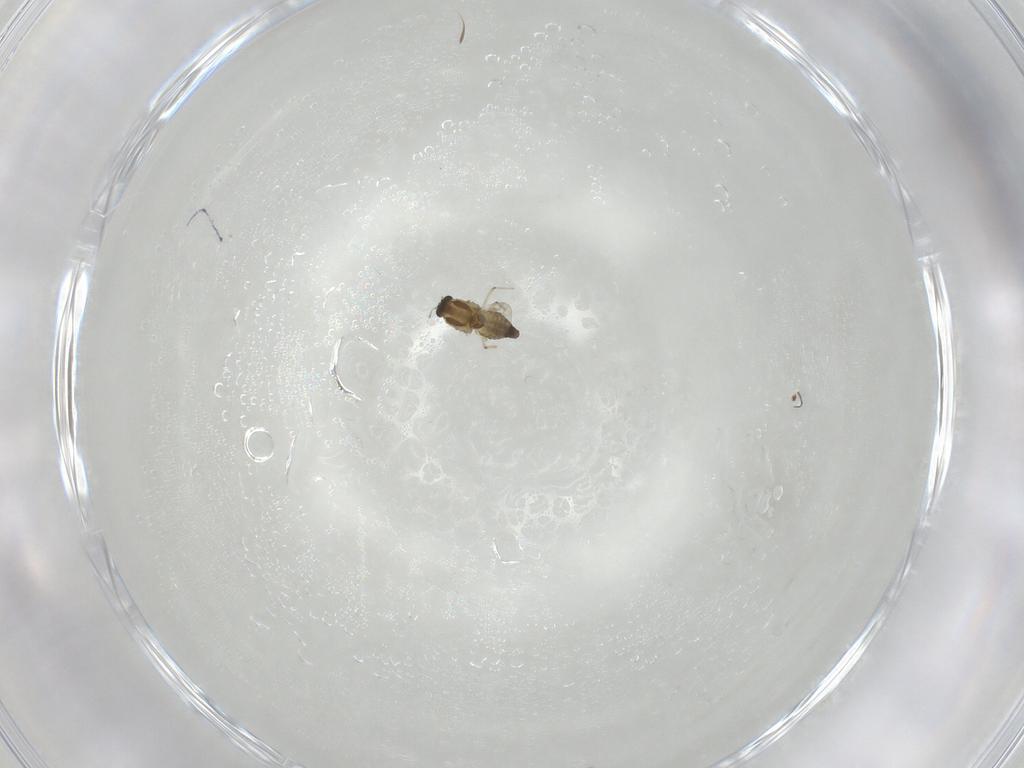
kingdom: Animalia
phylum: Arthropoda
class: Insecta
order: Diptera
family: Chironomidae
